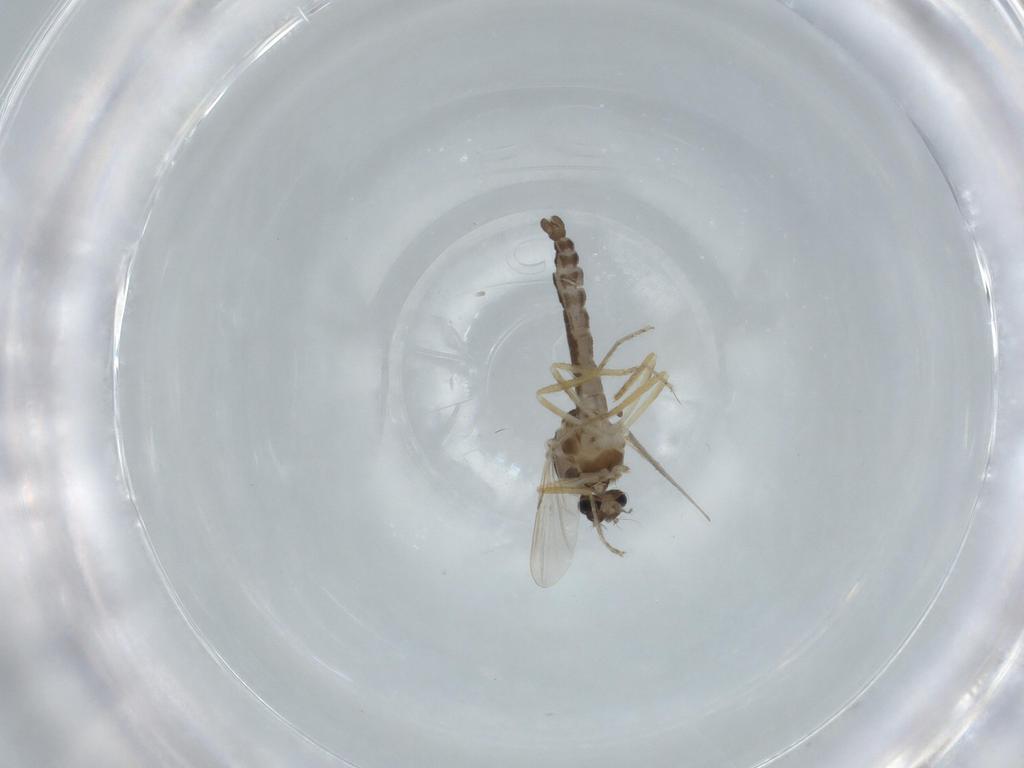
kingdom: Animalia
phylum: Arthropoda
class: Insecta
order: Diptera
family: Cecidomyiidae
